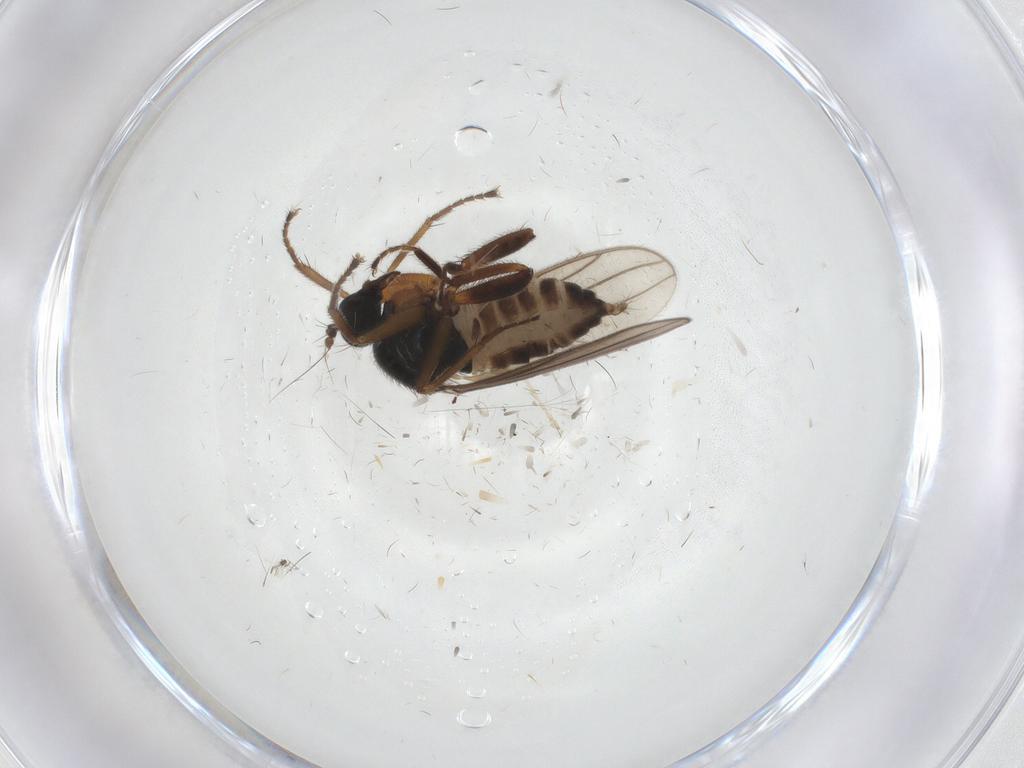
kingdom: Animalia
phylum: Arthropoda
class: Insecta
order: Diptera
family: Hybotidae
